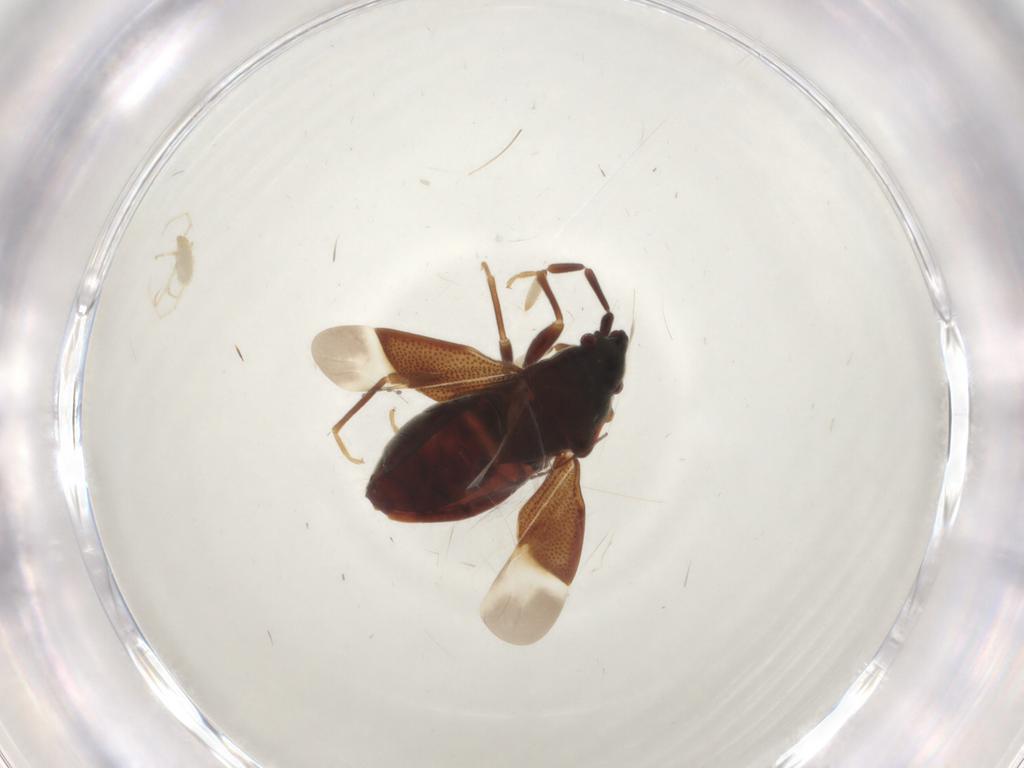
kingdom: Animalia
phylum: Arthropoda
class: Insecta
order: Hemiptera
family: Rhyparochromidae
